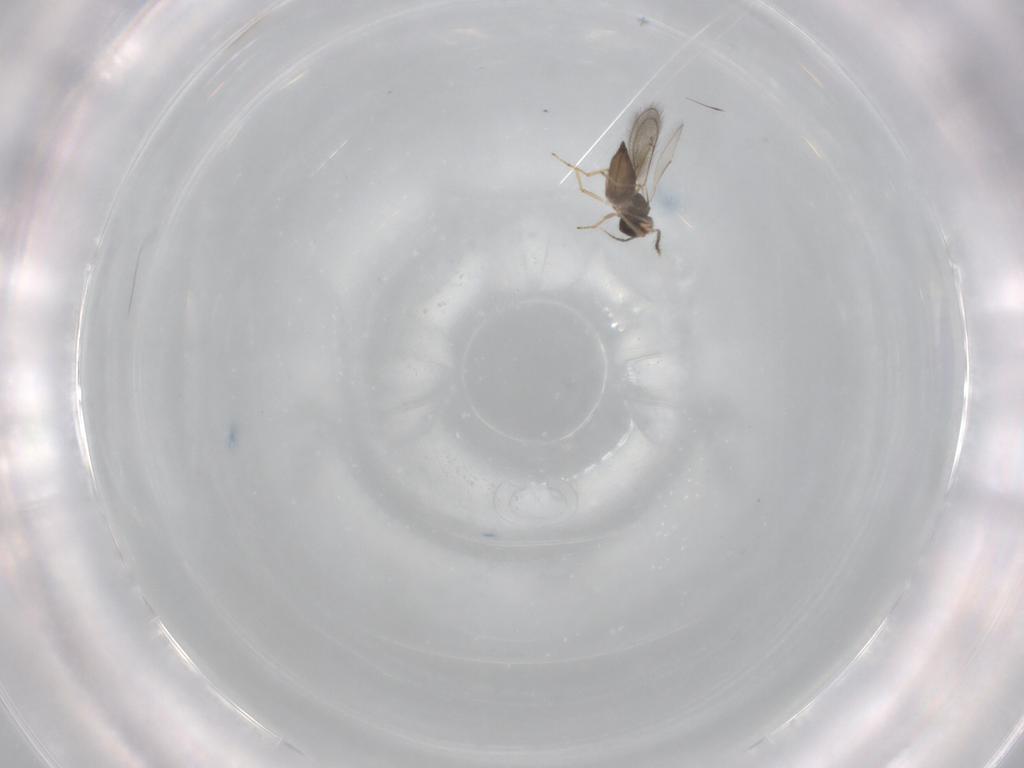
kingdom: Animalia
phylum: Arthropoda
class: Insecta
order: Hymenoptera
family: Eulophidae
